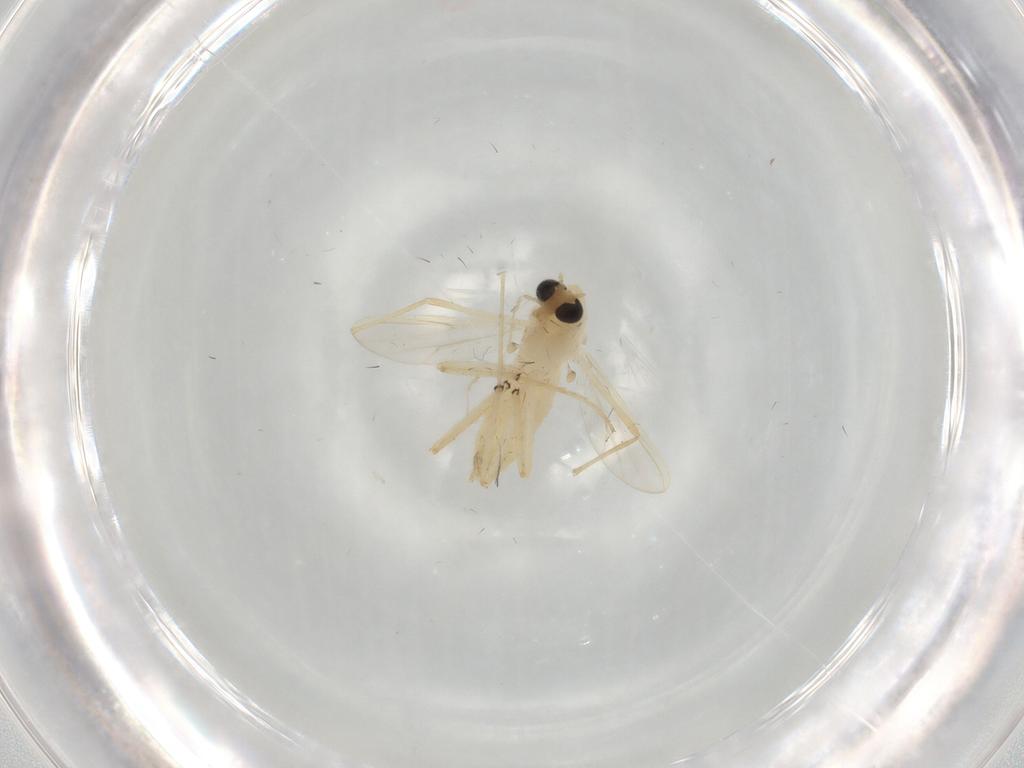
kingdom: Animalia
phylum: Arthropoda
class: Insecta
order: Diptera
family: Chironomidae
